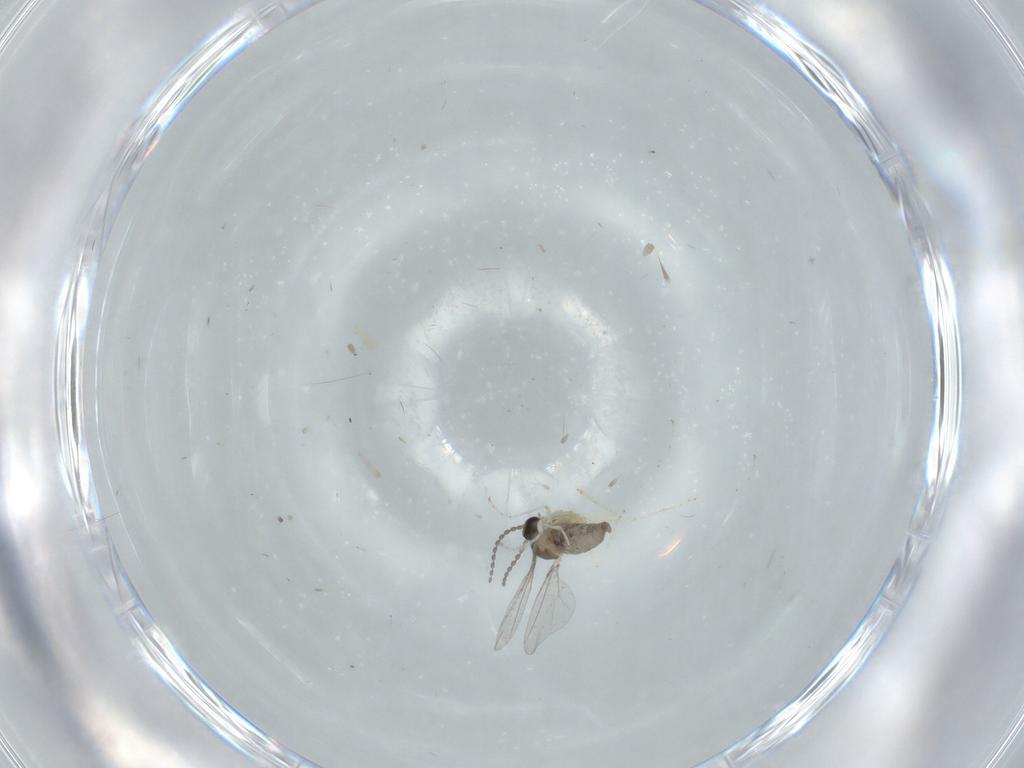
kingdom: Animalia
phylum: Arthropoda
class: Insecta
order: Diptera
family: Cecidomyiidae
